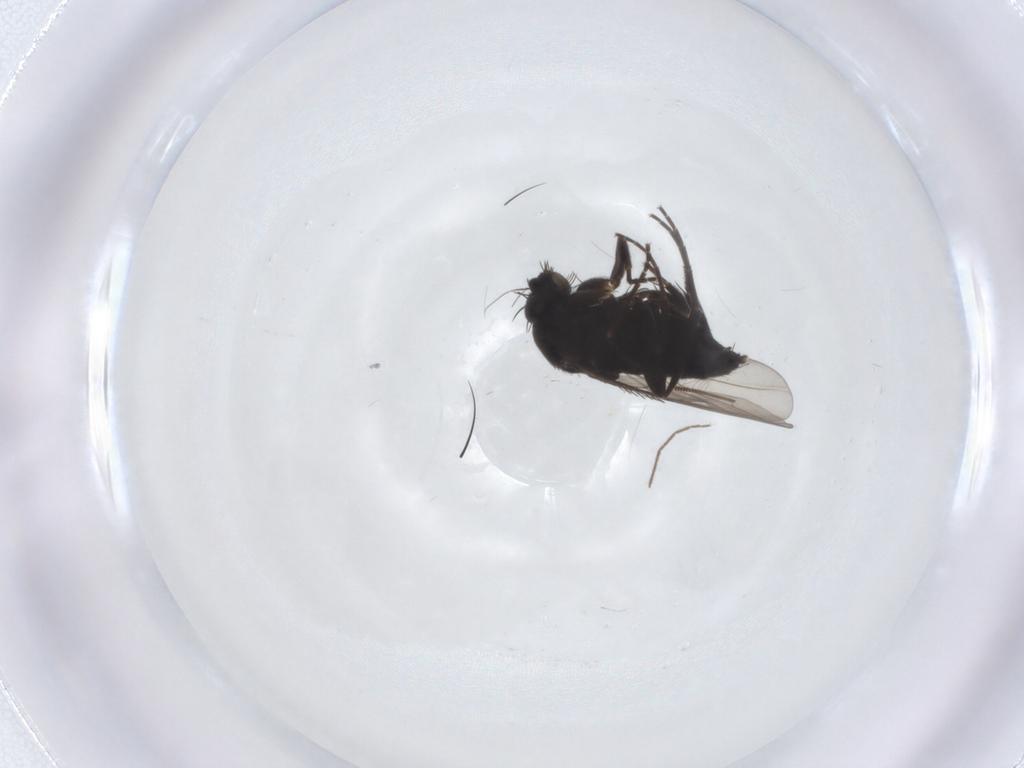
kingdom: Animalia
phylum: Arthropoda
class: Insecta
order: Diptera
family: Phoridae
